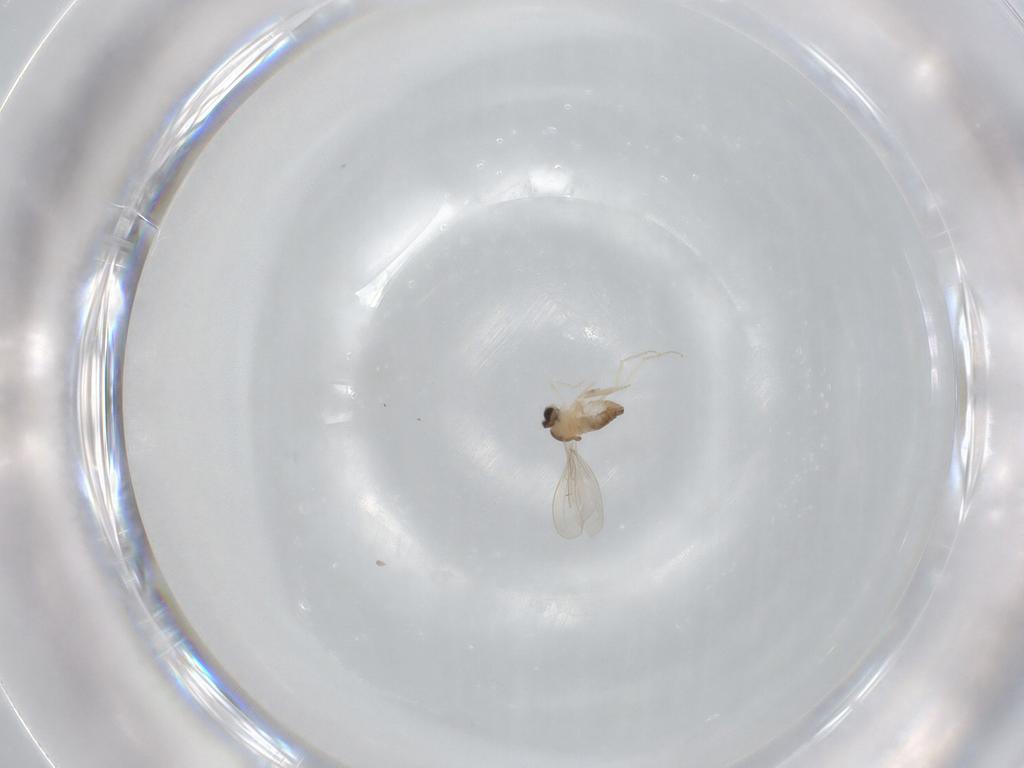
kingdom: Animalia
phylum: Arthropoda
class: Insecta
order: Diptera
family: Cecidomyiidae
